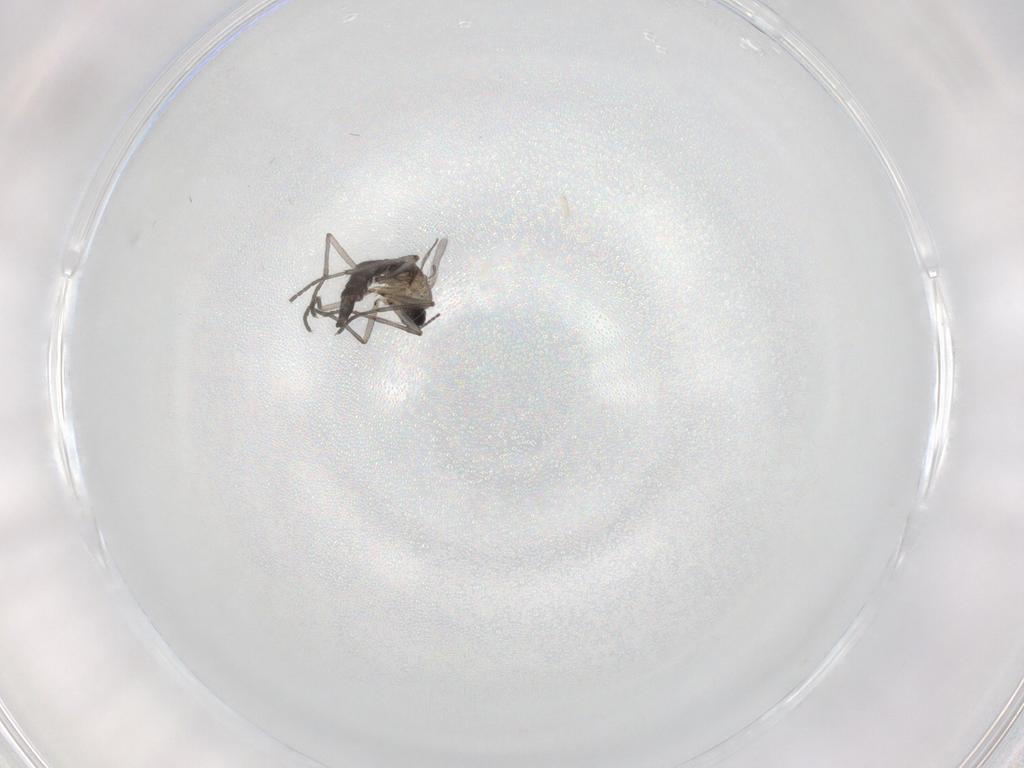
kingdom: Animalia
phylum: Arthropoda
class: Insecta
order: Diptera
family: Sciaridae
